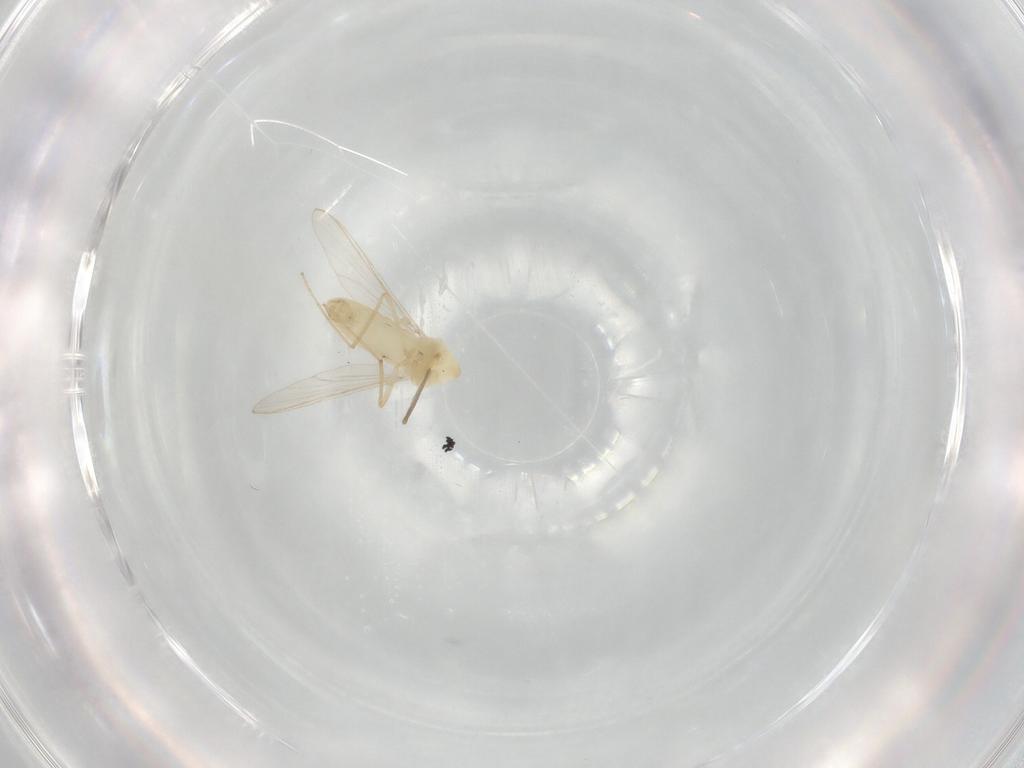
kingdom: Animalia
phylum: Arthropoda
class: Insecta
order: Diptera
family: Chironomidae
